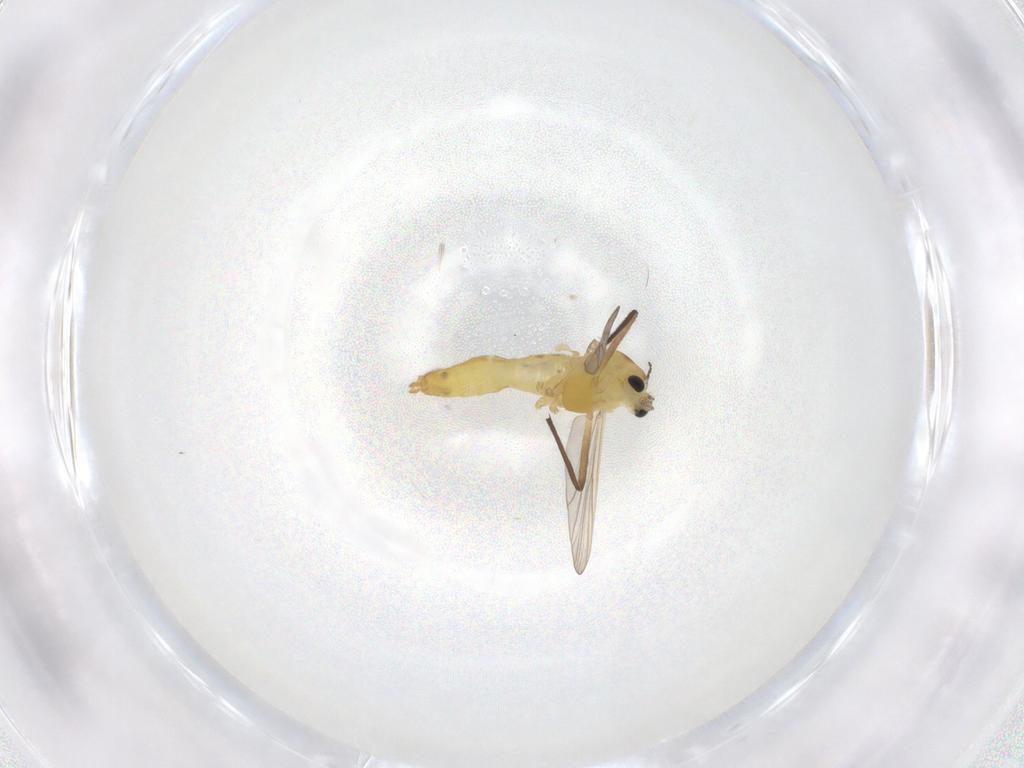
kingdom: Animalia
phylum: Arthropoda
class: Insecta
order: Diptera
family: Chironomidae
